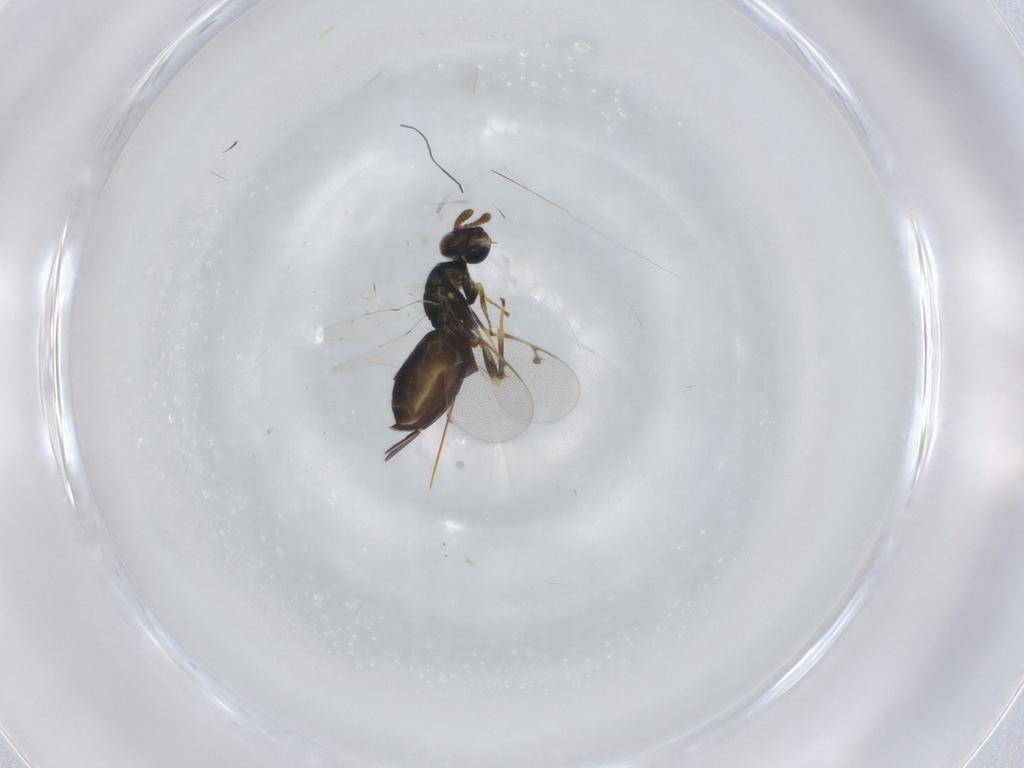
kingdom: Animalia
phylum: Arthropoda
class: Insecta
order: Hymenoptera
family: Pteromalidae
